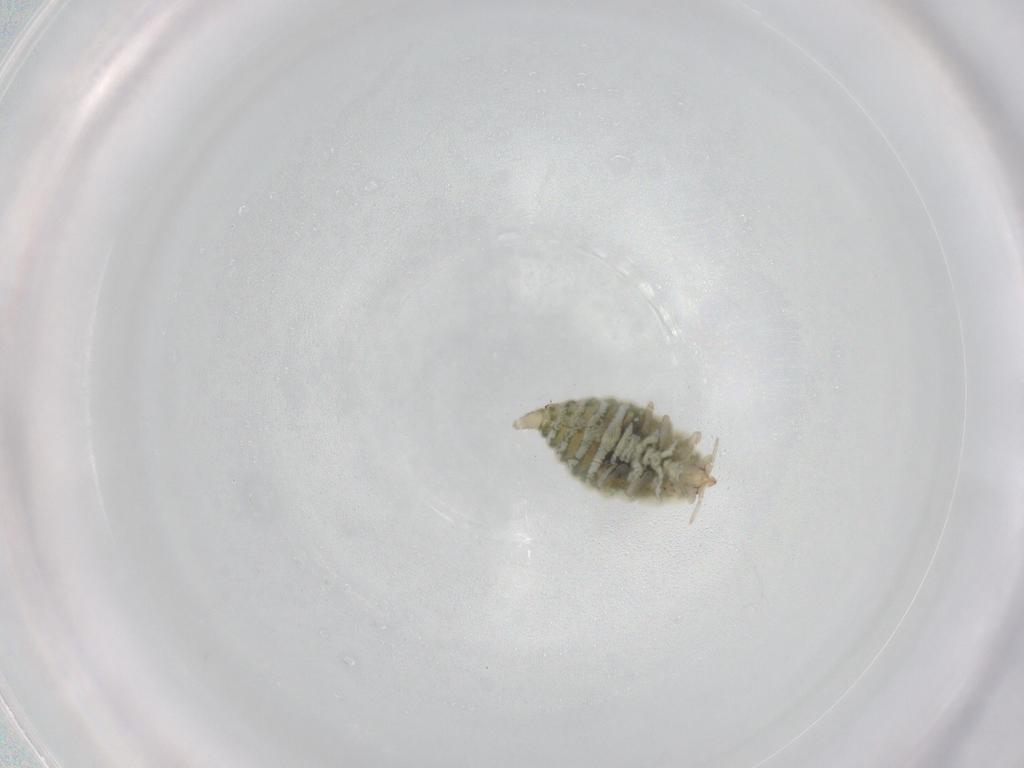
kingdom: Animalia
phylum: Arthropoda
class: Insecta
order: Neuroptera
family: Coniopterygidae
